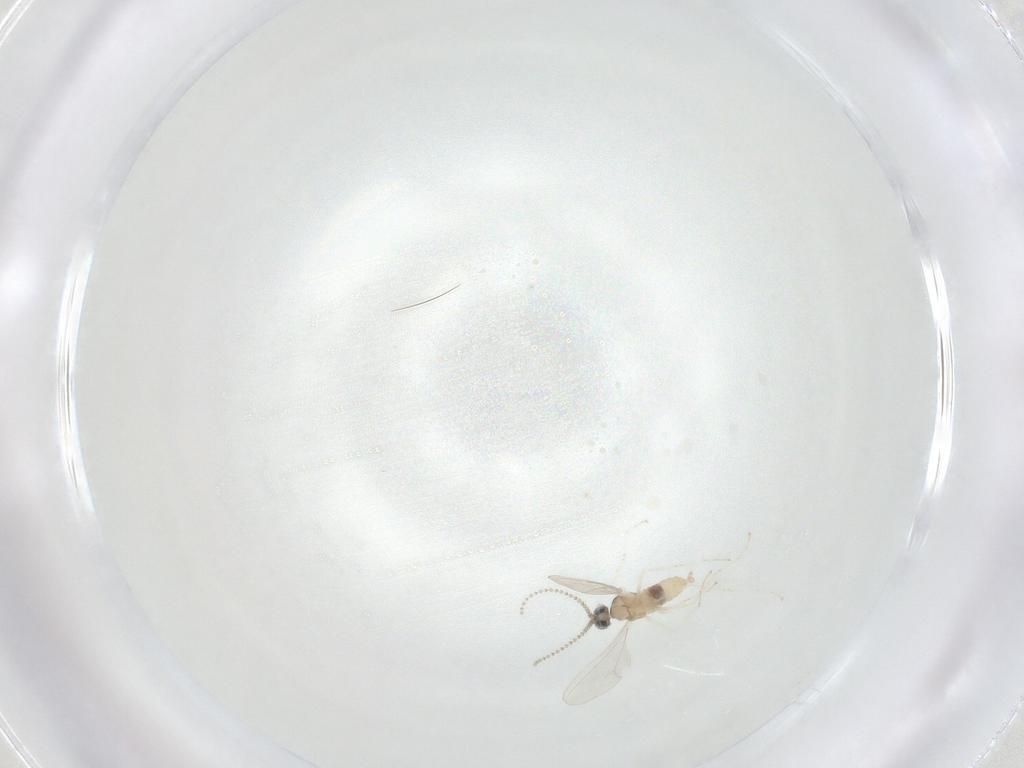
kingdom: Animalia
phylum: Arthropoda
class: Insecta
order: Diptera
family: Cecidomyiidae
